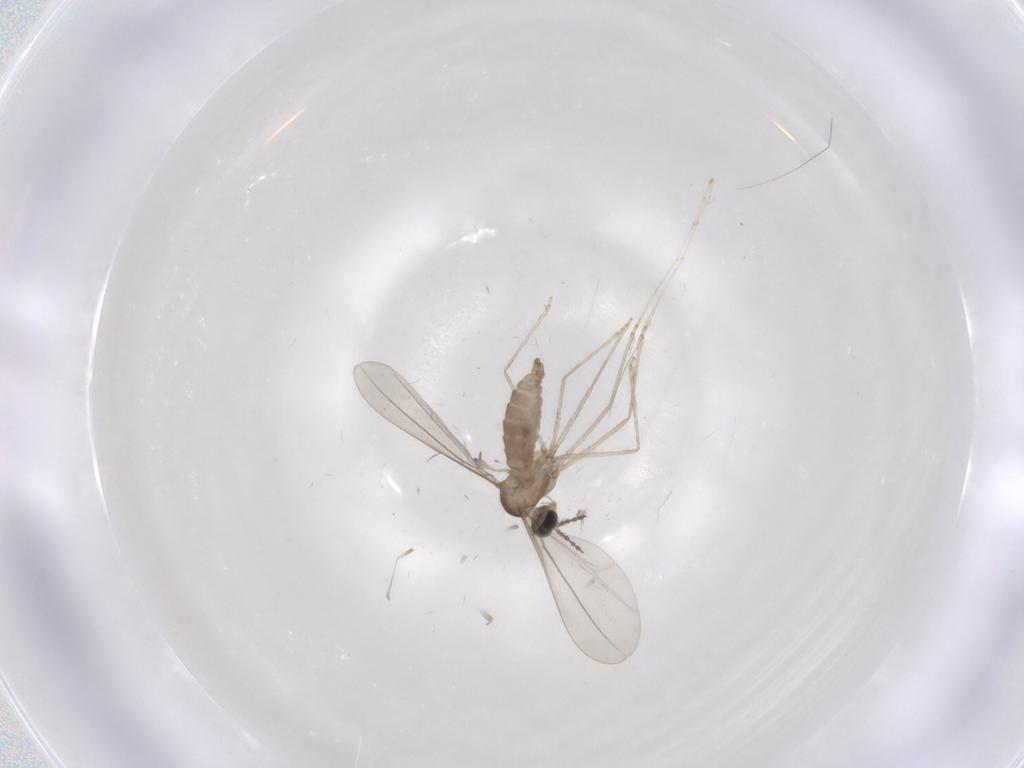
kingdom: Animalia
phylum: Arthropoda
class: Insecta
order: Diptera
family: Cecidomyiidae
